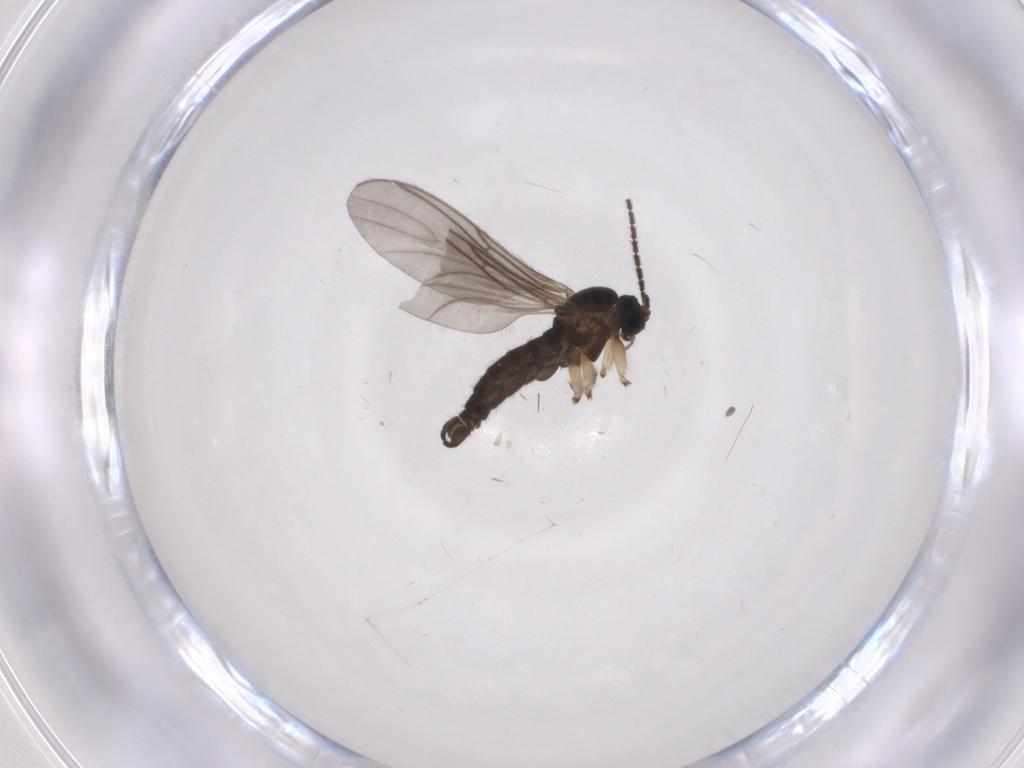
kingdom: Animalia
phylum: Arthropoda
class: Insecta
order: Diptera
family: Sciaridae
